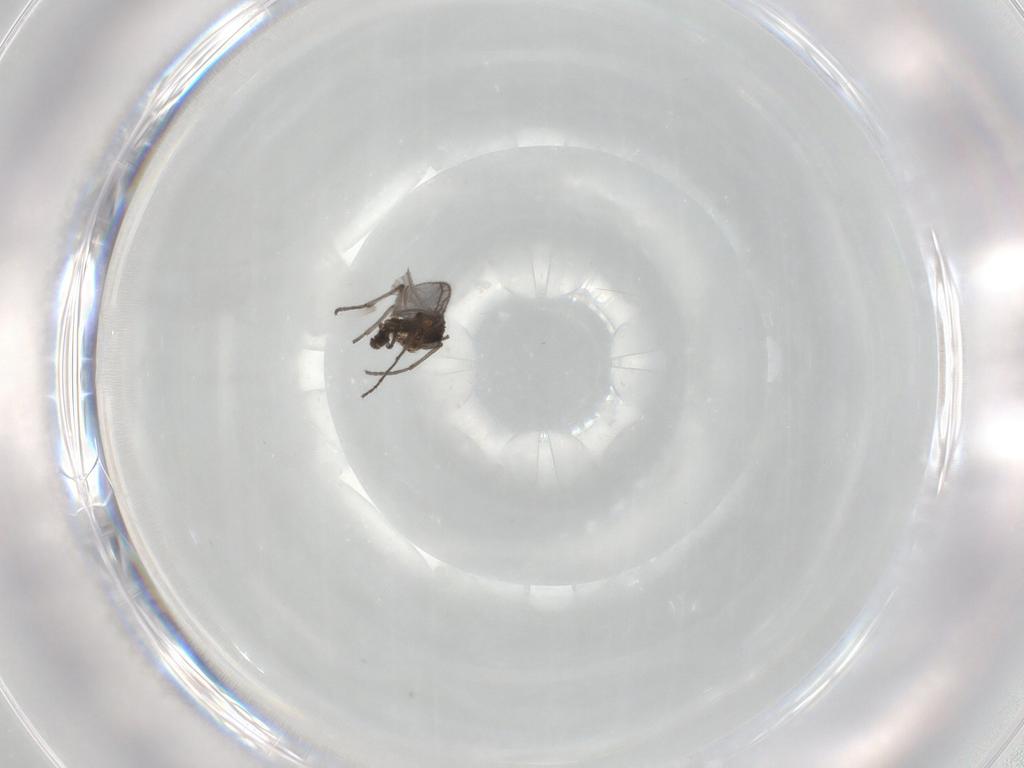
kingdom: Animalia
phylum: Arthropoda
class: Insecta
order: Diptera
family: Sciaridae
